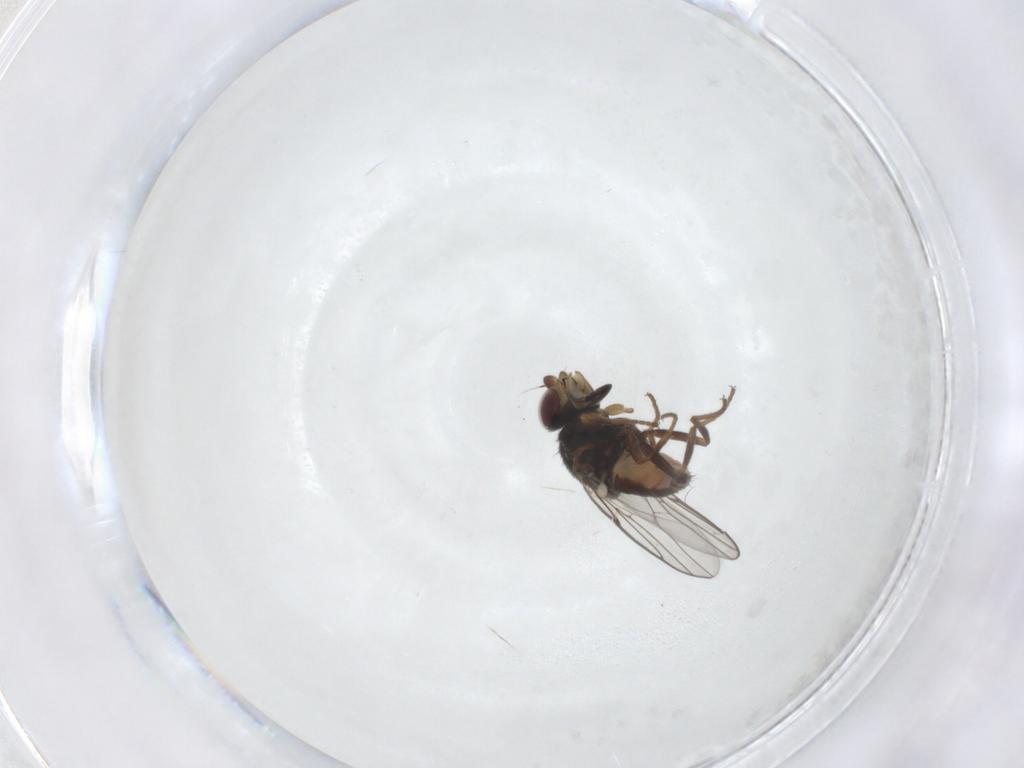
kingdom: Animalia
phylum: Arthropoda
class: Insecta
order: Diptera
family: Chloropidae
